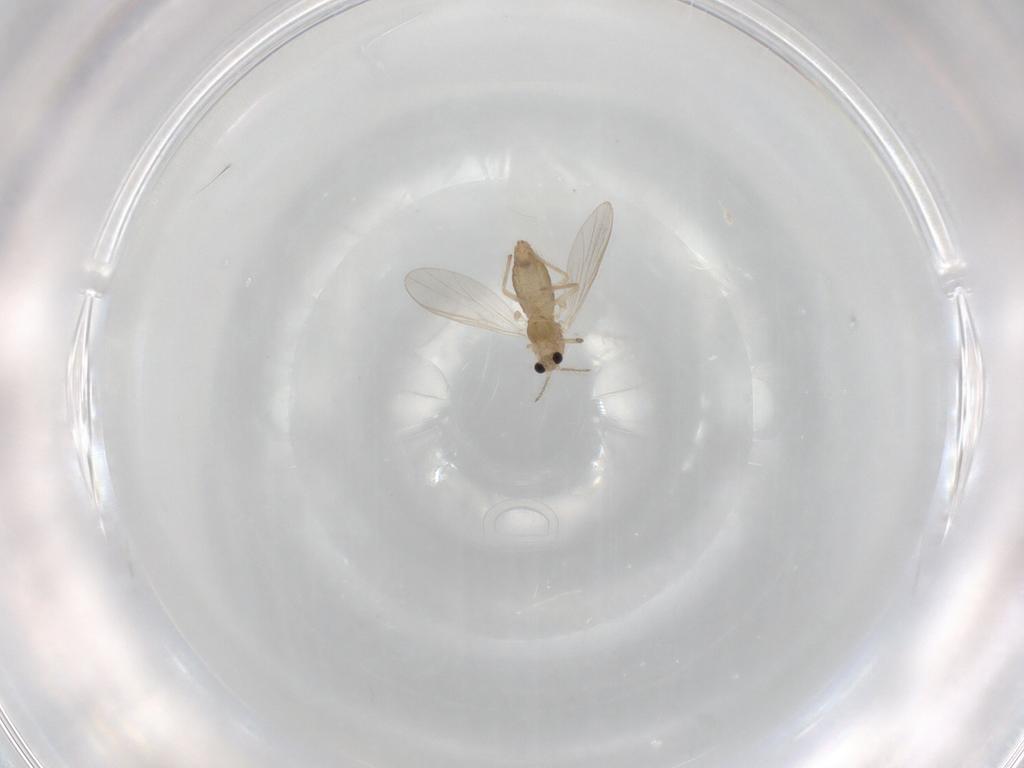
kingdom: Animalia
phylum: Arthropoda
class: Insecta
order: Diptera
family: Chironomidae
